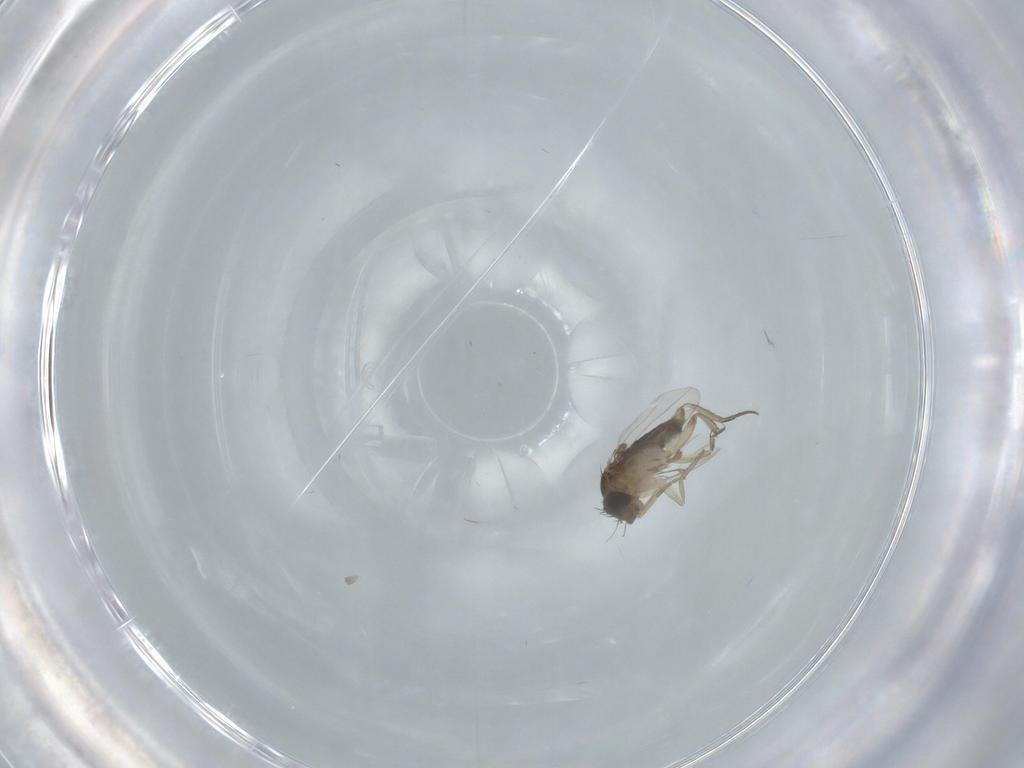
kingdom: Animalia
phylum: Arthropoda
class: Insecta
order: Diptera
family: Phoridae
